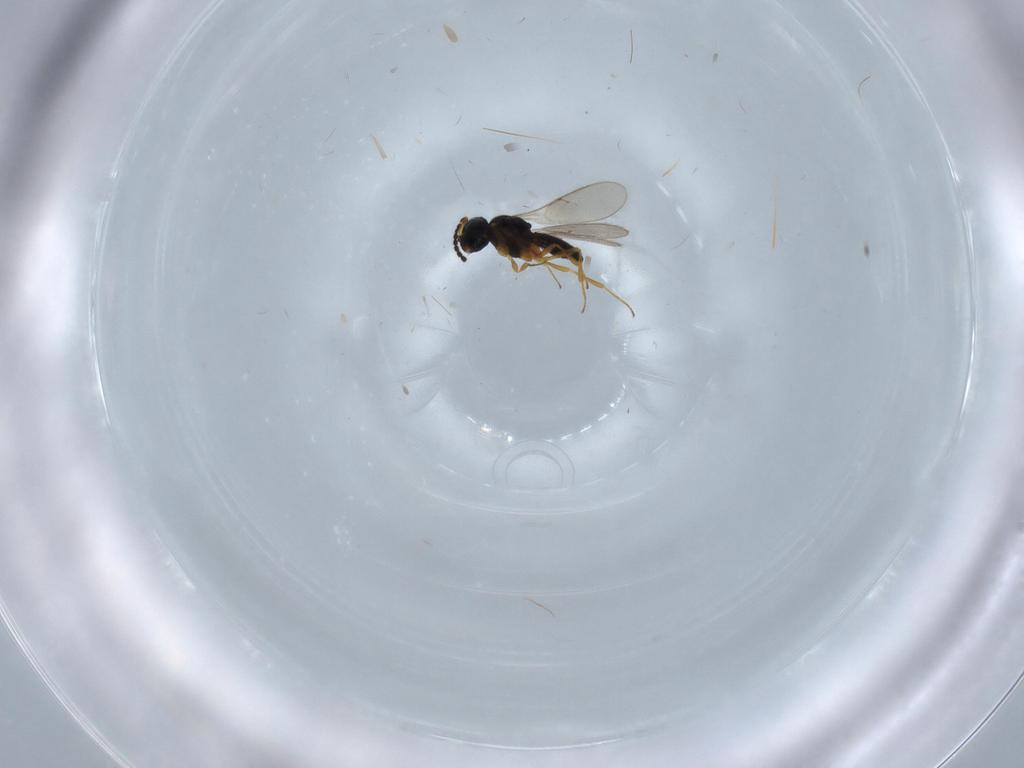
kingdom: Animalia
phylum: Arthropoda
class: Insecta
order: Hymenoptera
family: Scelionidae
